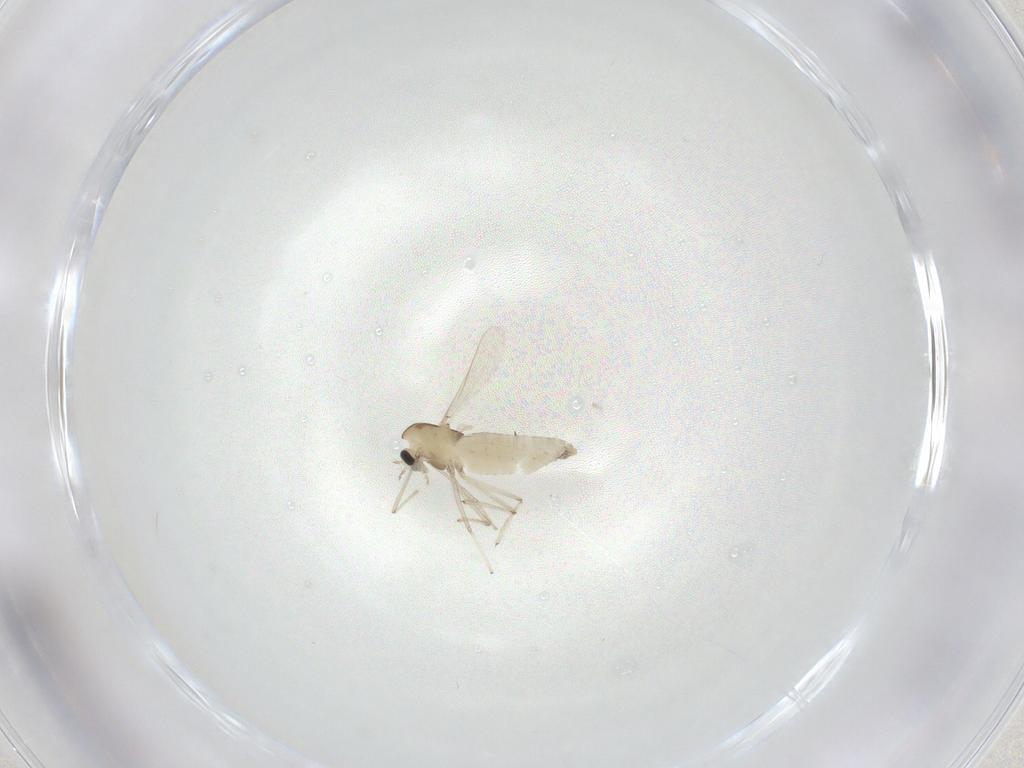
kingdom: Animalia
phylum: Arthropoda
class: Insecta
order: Diptera
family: Chironomidae
